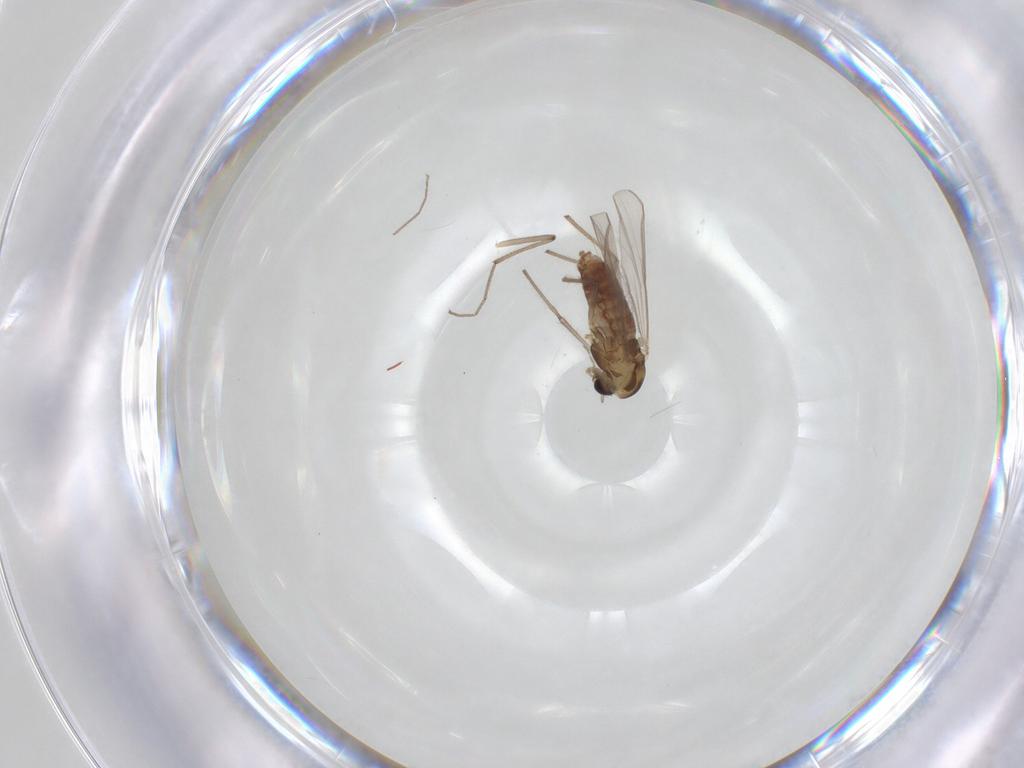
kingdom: Animalia
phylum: Arthropoda
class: Insecta
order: Diptera
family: Chironomidae
